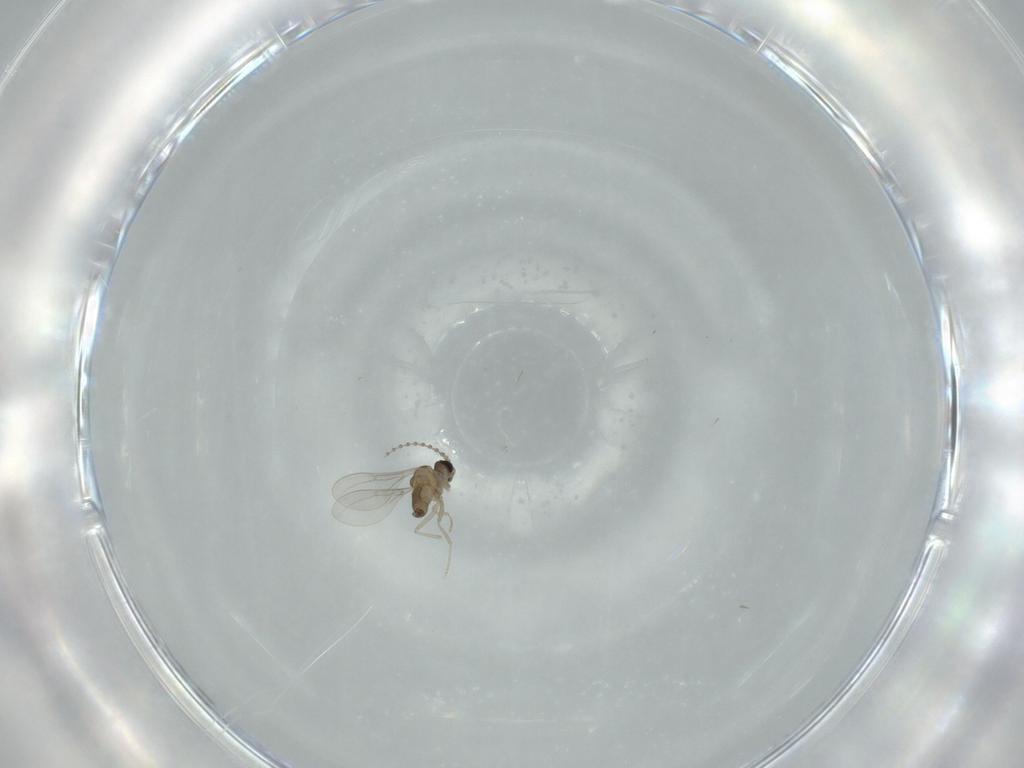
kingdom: Animalia
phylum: Arthropoda
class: Insecta
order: Diptera
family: Cecidomyiidae
